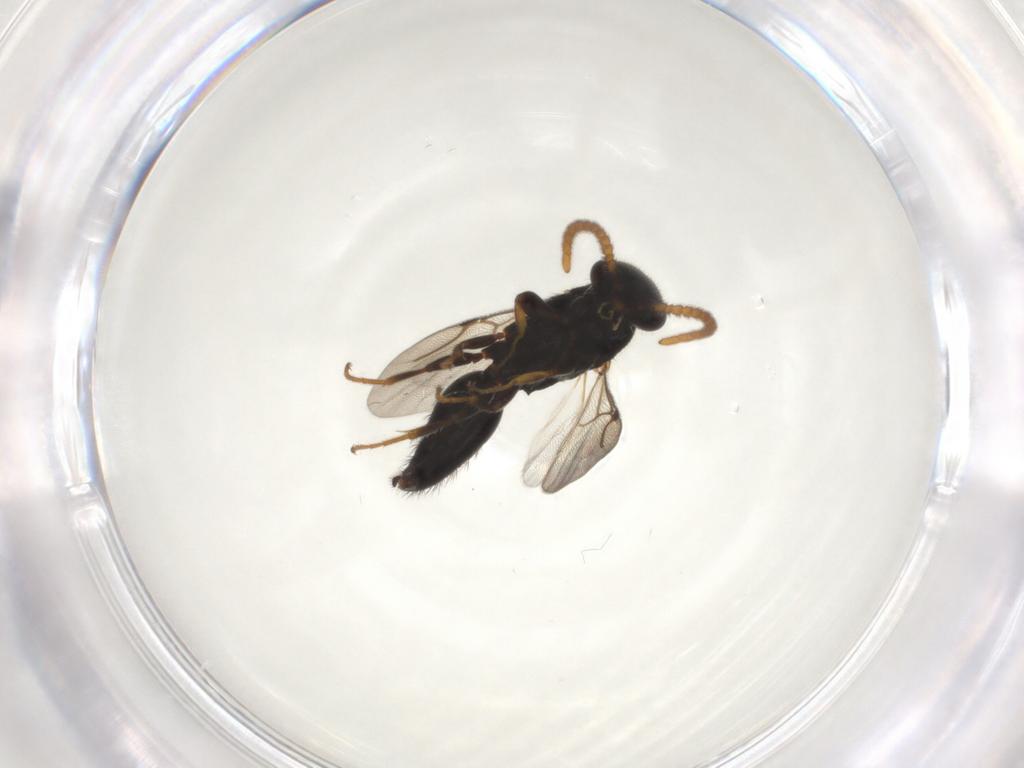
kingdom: Animalia
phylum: Arthropoda
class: Insecta
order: Hymenoptera
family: Bethylidae
